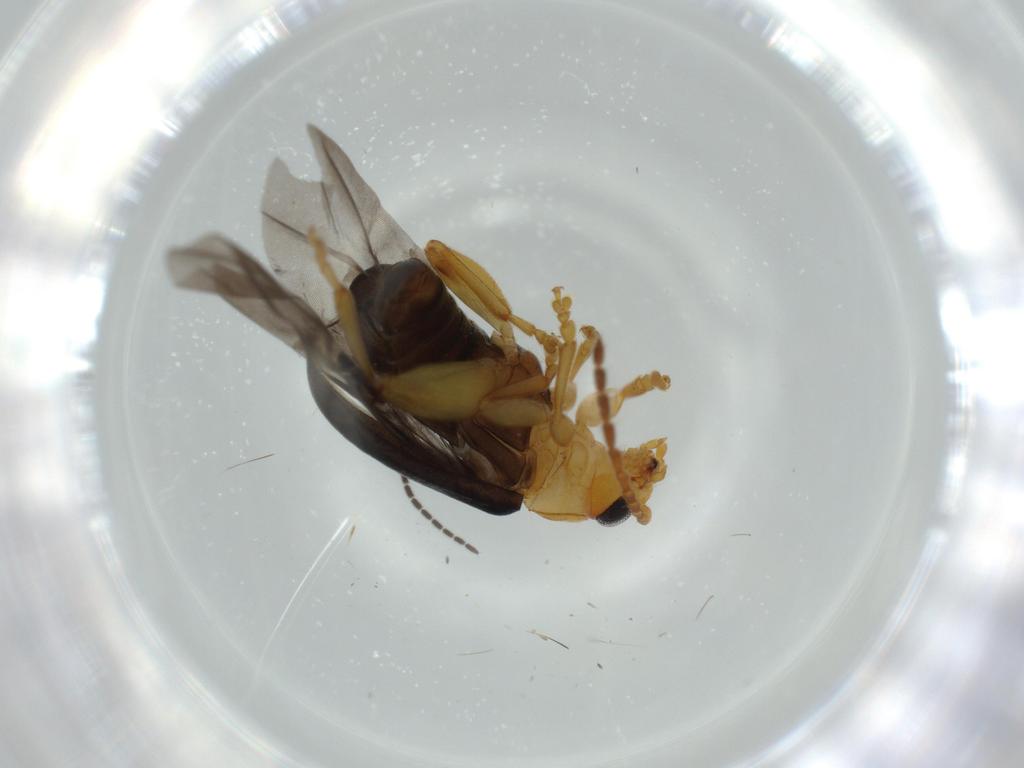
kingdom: Animalia
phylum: Arthropoda
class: Insecta
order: Coleoptera
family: Chrysomelidae
